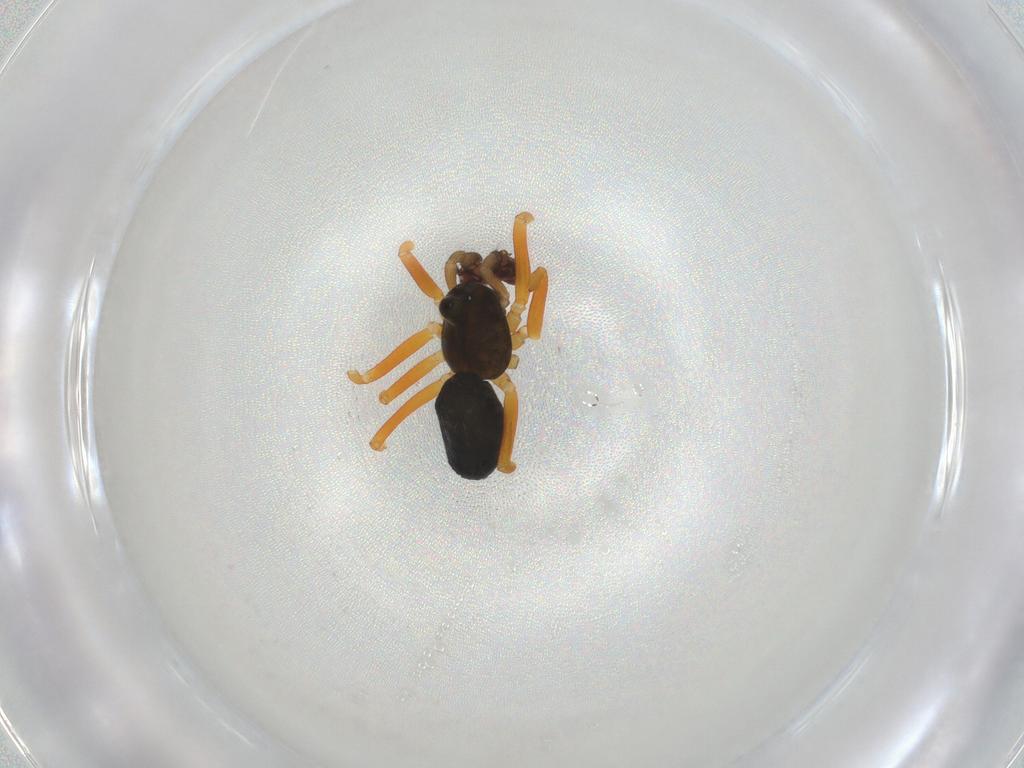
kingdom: Animalia
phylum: Arthropoda
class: Arachnida
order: Araneae
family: Linyphiidae
